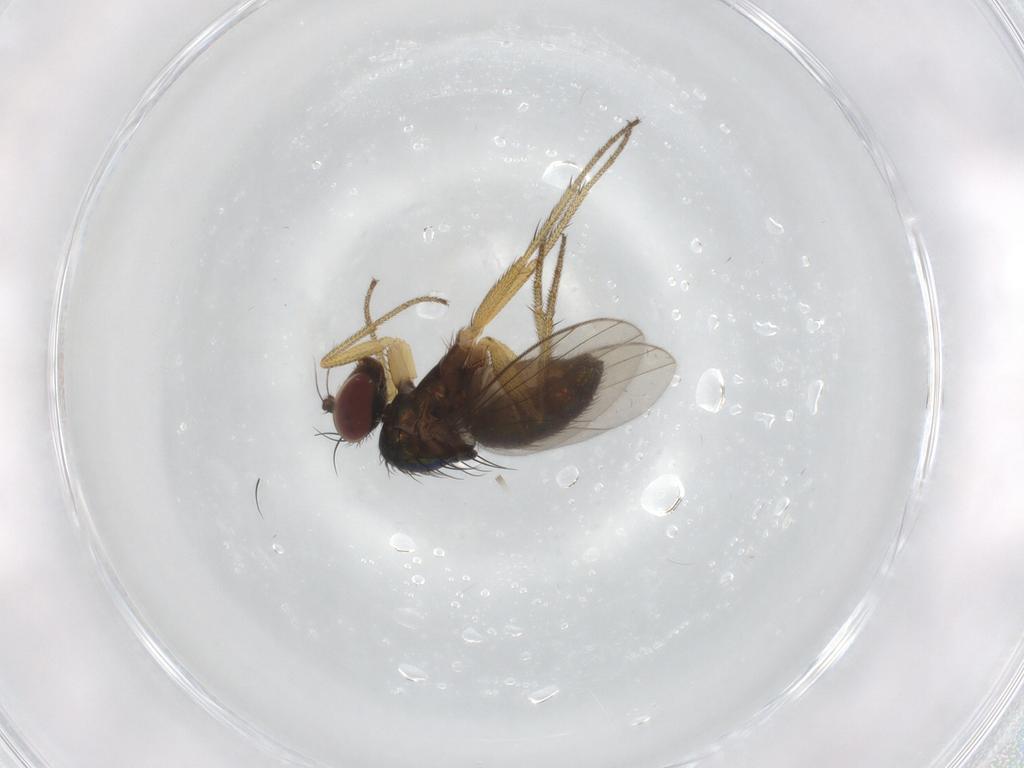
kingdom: Animalia
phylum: Arthropoda
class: Insecta
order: Diptera
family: Dolichopodidae
